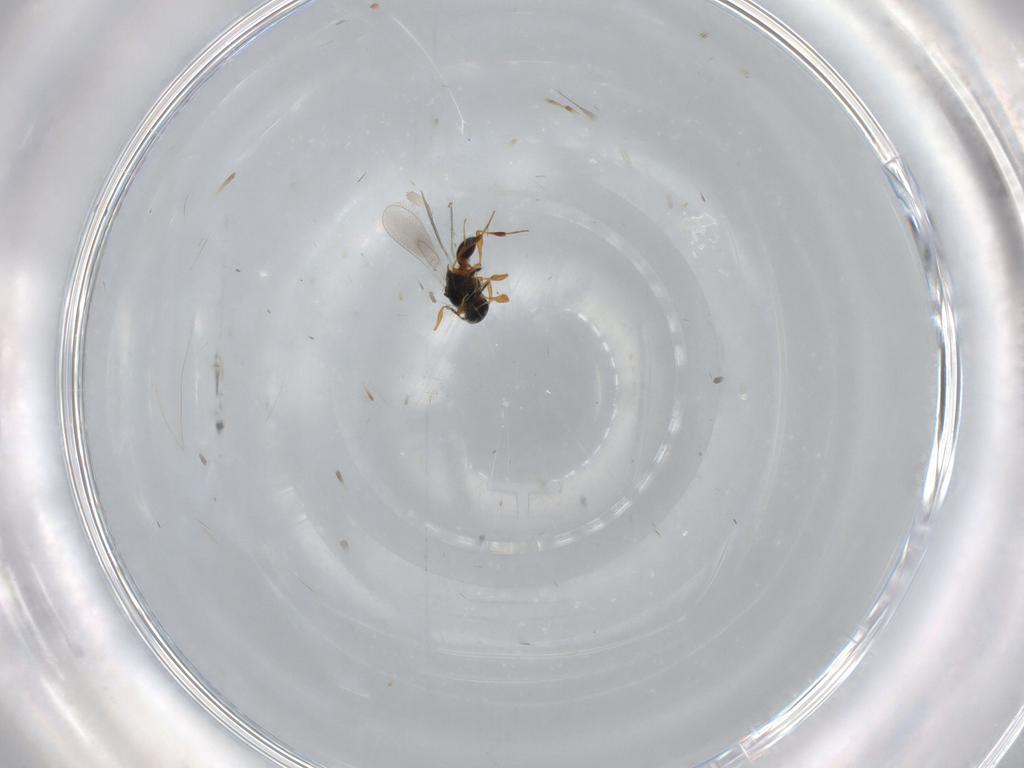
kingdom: Animalia
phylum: Arthropoda
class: Insecta
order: Hymenoptera
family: Platygastridae
